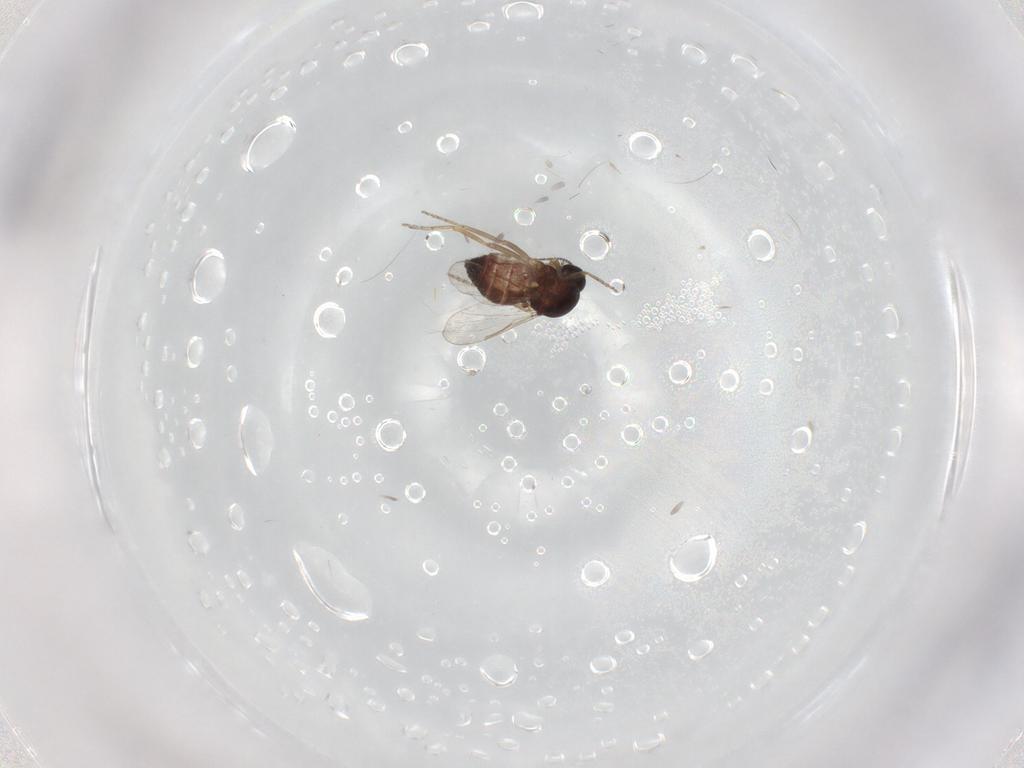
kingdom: Animalia
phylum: Arthropoda
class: Insecta
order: Diptera
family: Ceratopogonidae
